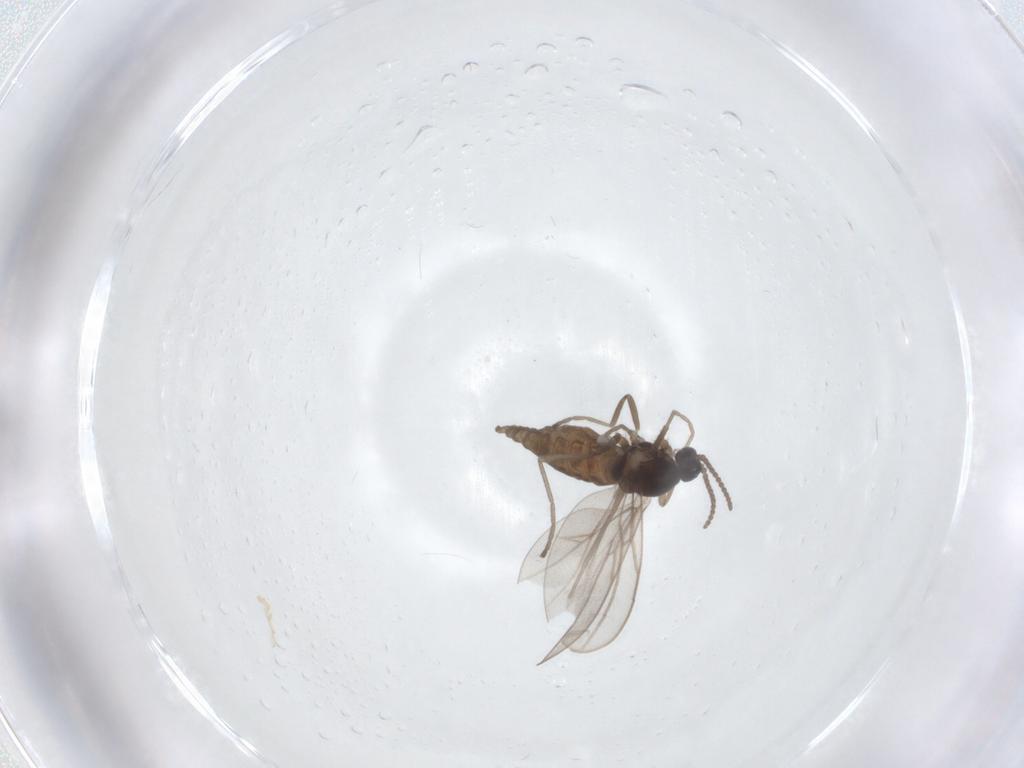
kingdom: Animalia
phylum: Arthropoda
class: Insecta
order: Diptera
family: Cecidomyiidae
